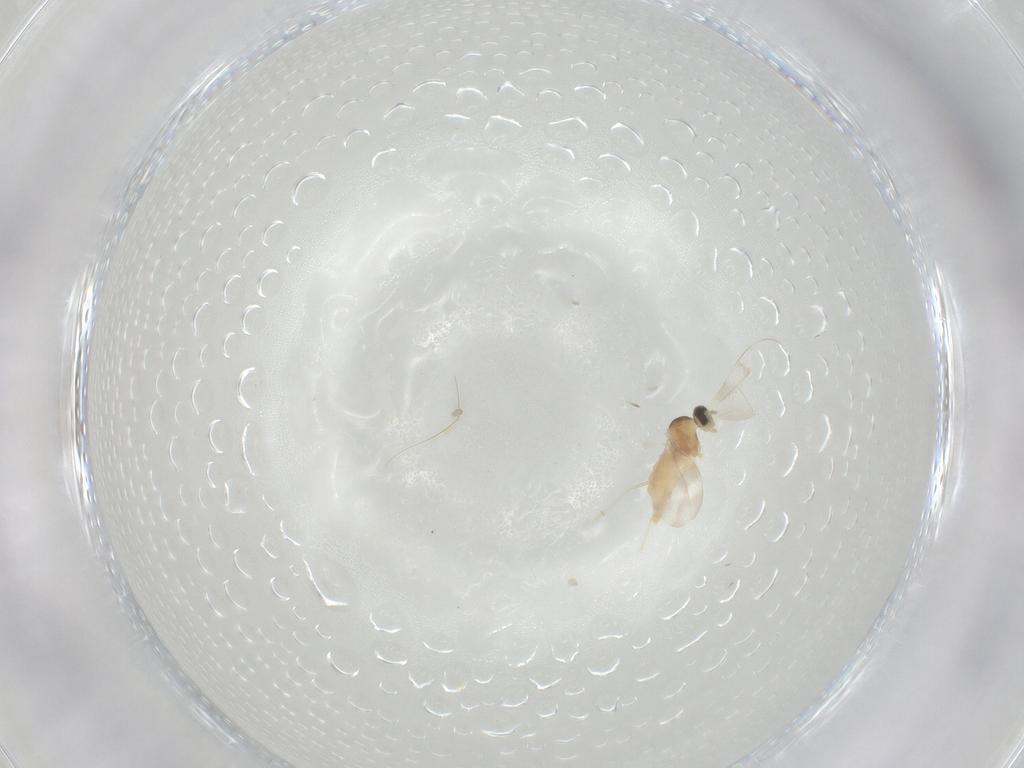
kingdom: Animalia
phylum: Arthropoda
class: Insecta
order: Diptera
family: Cecidomyiidae
